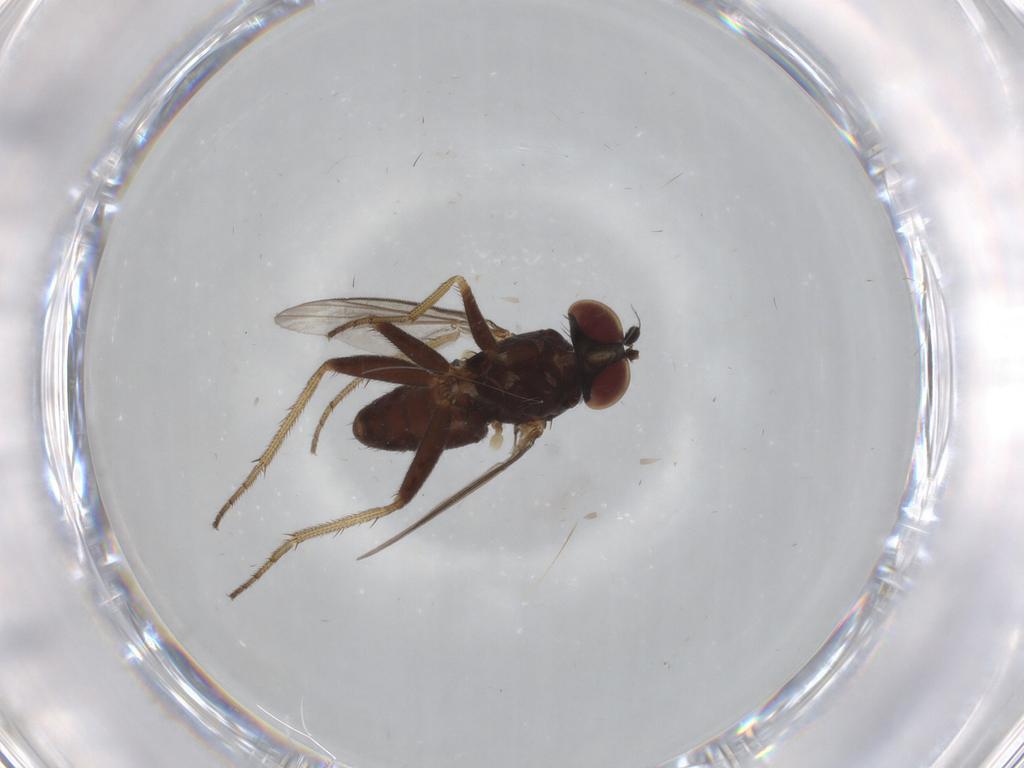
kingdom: Animalia
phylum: Arthropoda
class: Insecta
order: Diptera
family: Dolichopodidae
